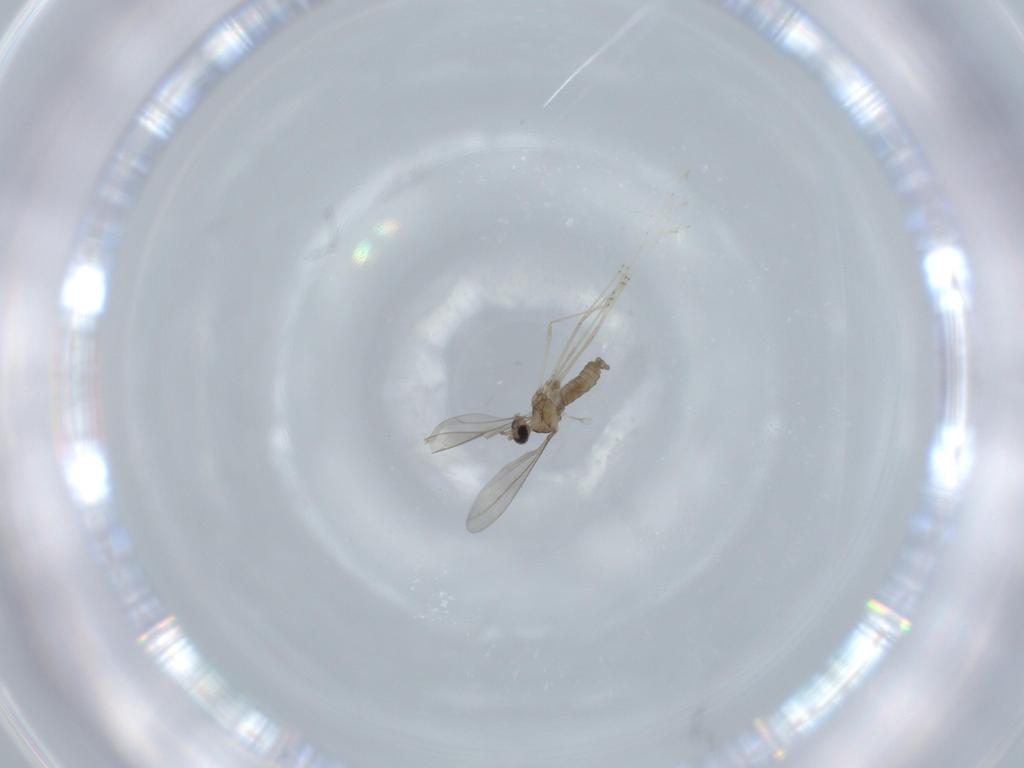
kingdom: Animalia
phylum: Arthropoda
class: Insecta
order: Diptera
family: Cecidomyiidae
